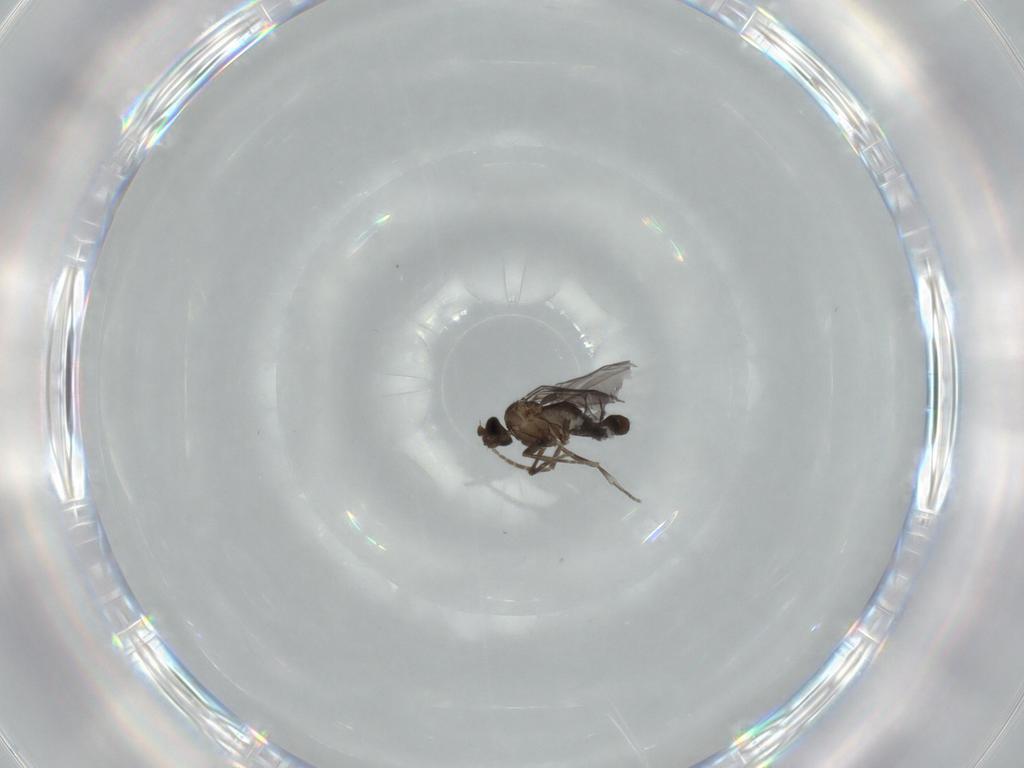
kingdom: Animalia
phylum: Arthropoda
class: Insecta
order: Diptera
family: Phoridae
